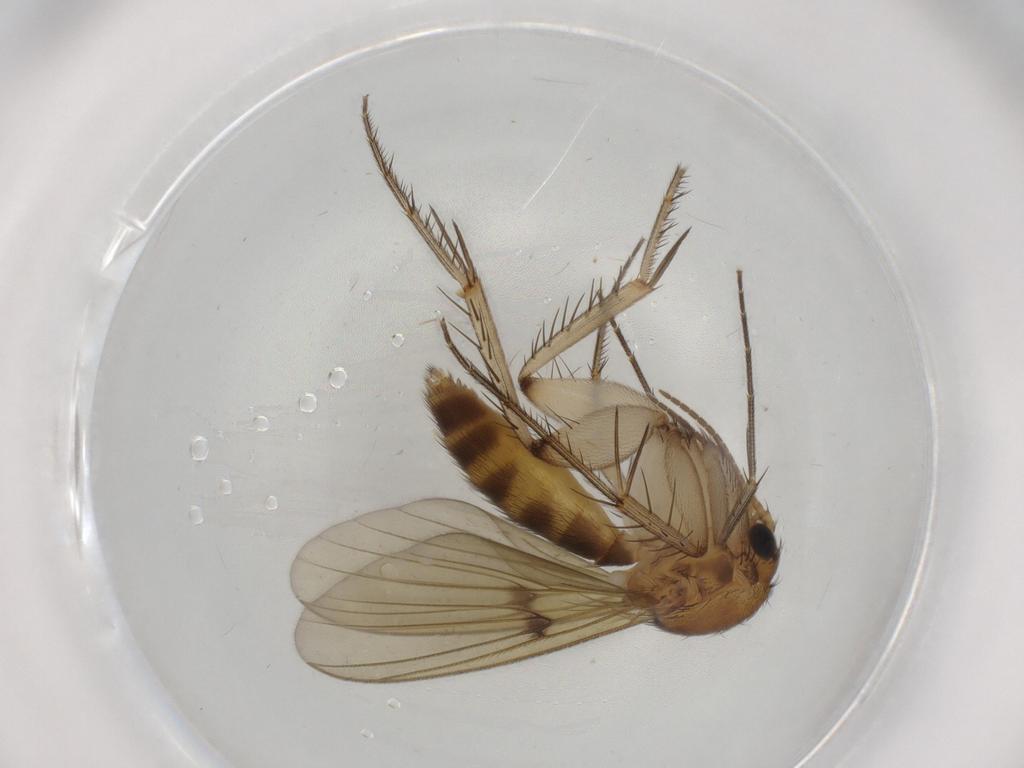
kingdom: Animalia
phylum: Arthropoda
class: Insecta
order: Diptera
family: Mycetophilidae
